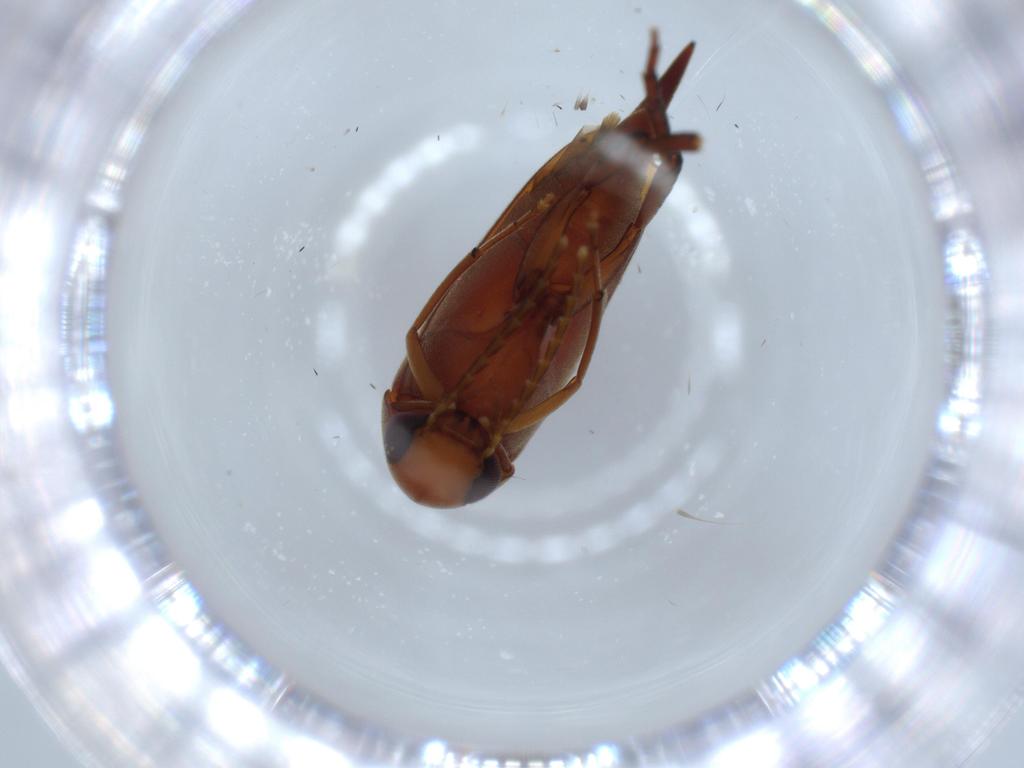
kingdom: Animalia
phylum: Arthropoda
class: Insecta
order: Coleoptera
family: Mordellidae
